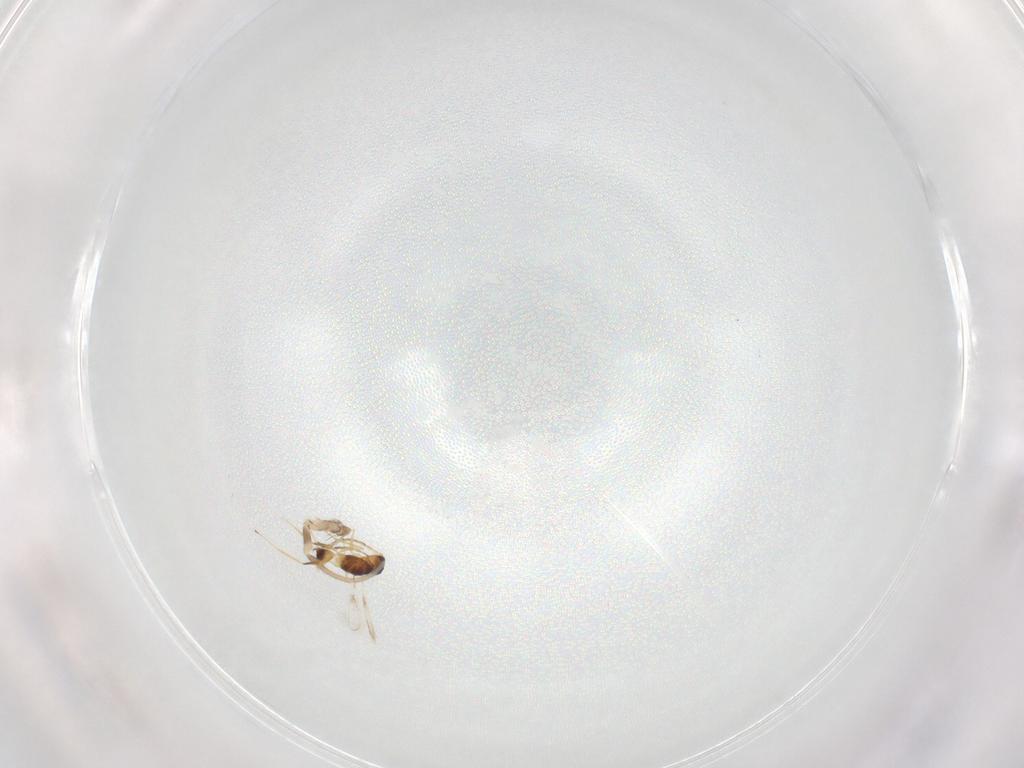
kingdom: Animalia
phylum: Arthropoda
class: Insecta
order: Hymenoptera
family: Mymaridae
